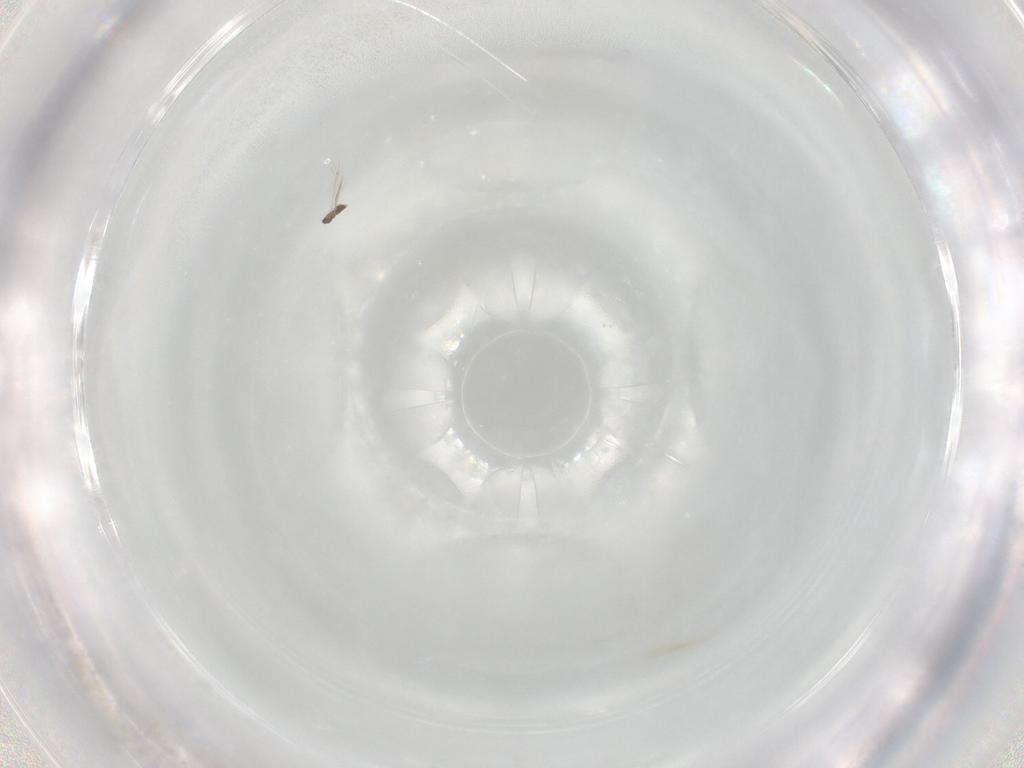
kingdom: Animalia
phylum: Arthropoda
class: Insecta
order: Hymenoptera
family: Mymaridae
